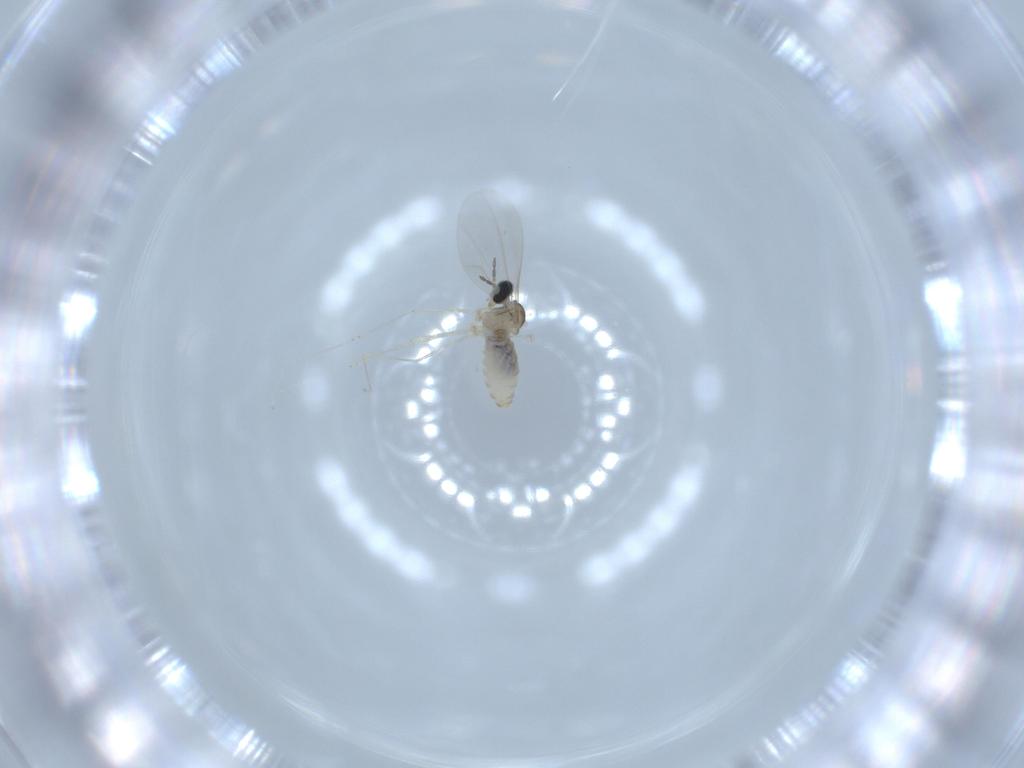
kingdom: Animalia
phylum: Arthropoda
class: Insecta
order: Diptera
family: Cecidomyiidae
